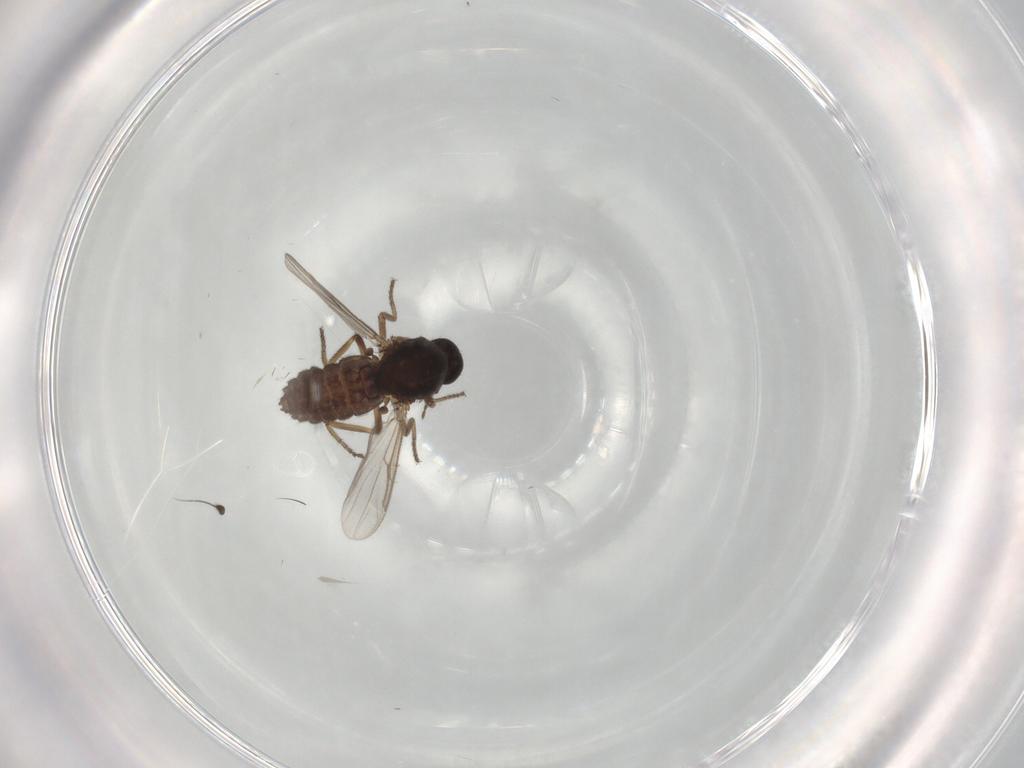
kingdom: Animalia
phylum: Arthropoda
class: Insecta
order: Diptera
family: Ceratopogonidae
